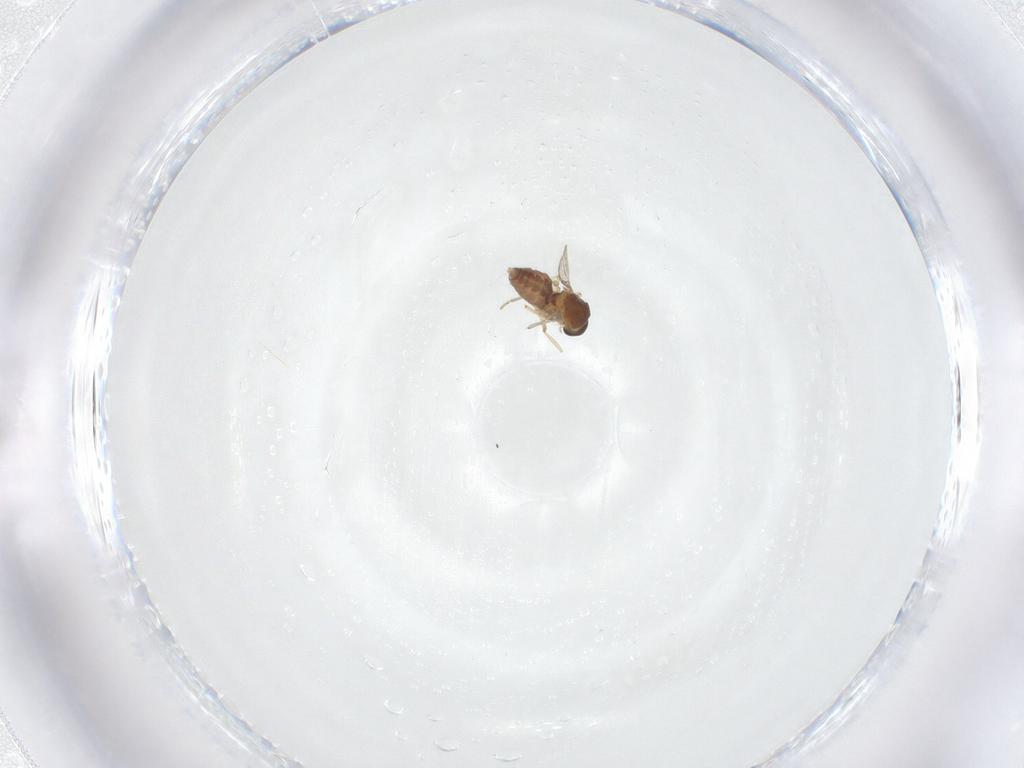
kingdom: Animalia
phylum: Arthropoda
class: Insecta
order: Diptera
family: Ceratopogonidae
